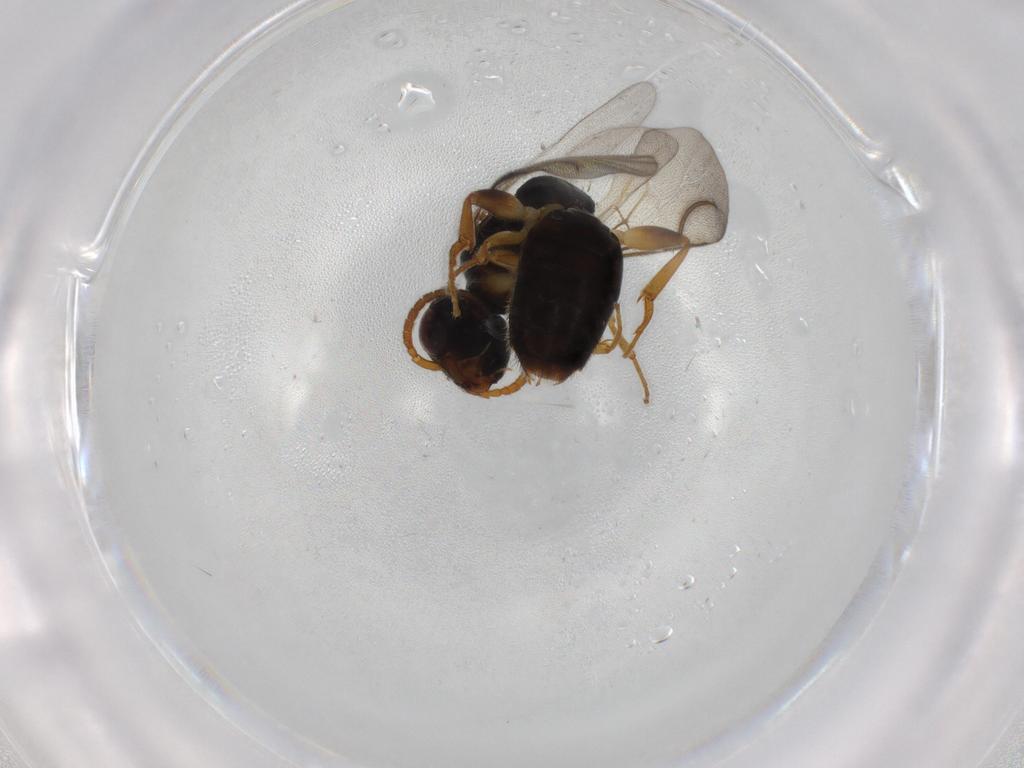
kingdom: Animalia
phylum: Arthropoda
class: Insecta
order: Hymenoptera
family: Bethylidae
